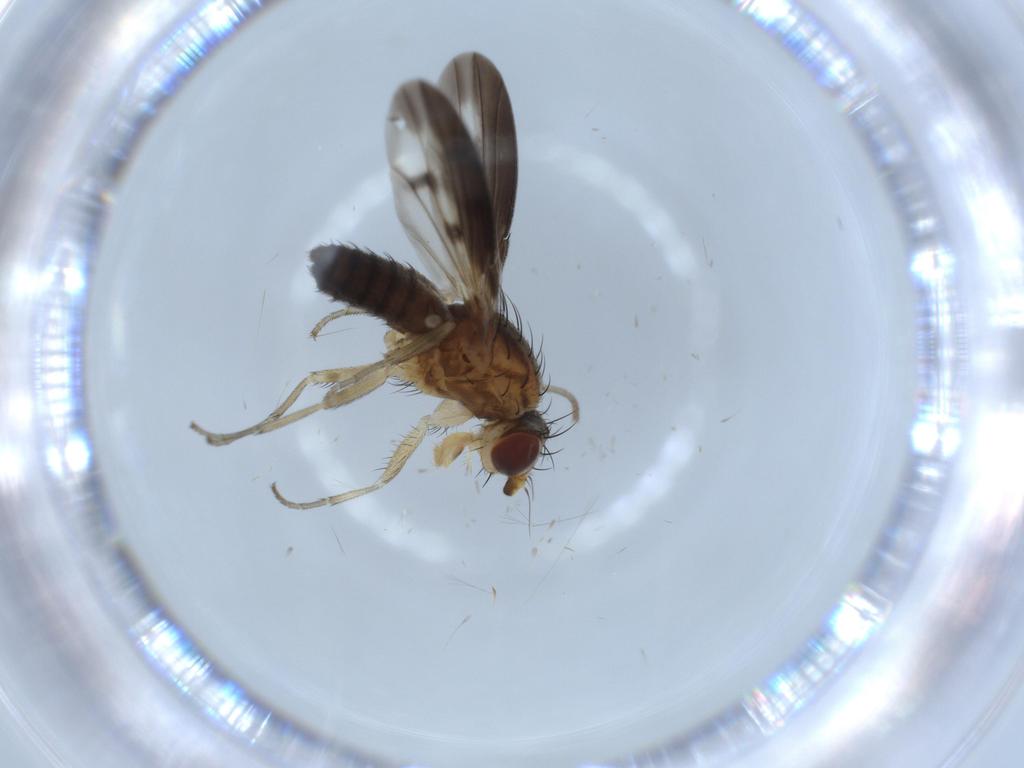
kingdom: Animalia
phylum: Arthropoda
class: Insecta
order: Diptera
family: Heleomyzidae
